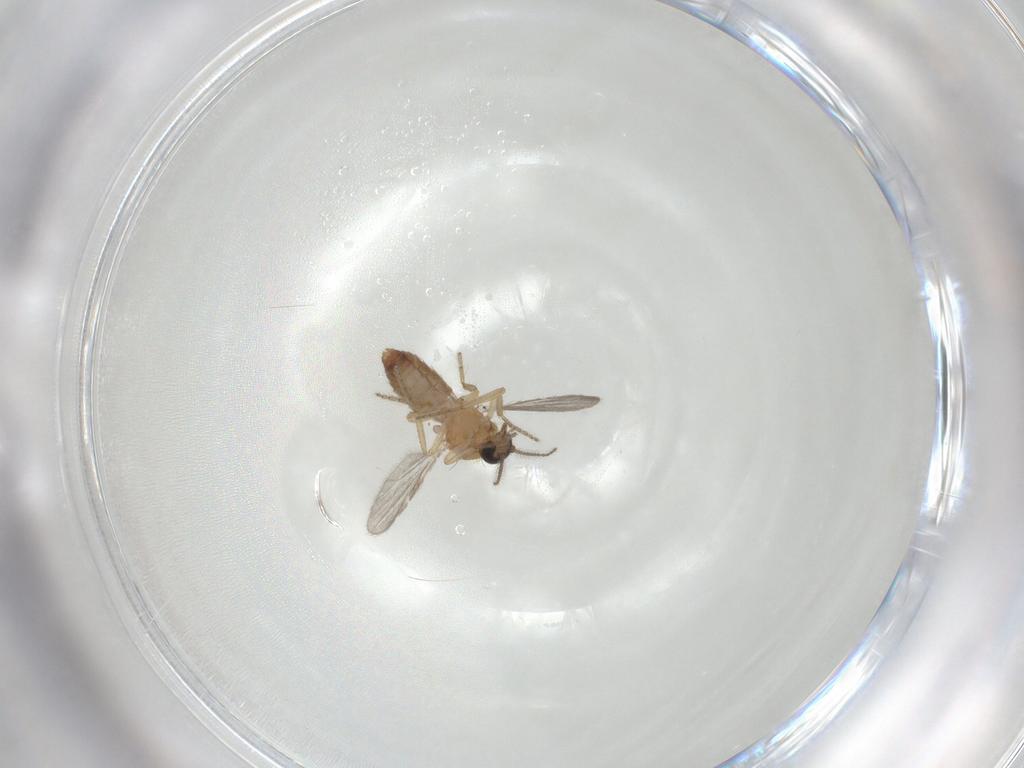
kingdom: Animalia
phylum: Arthropoda
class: Insecta
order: Diptera
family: Ceratopogonidae
